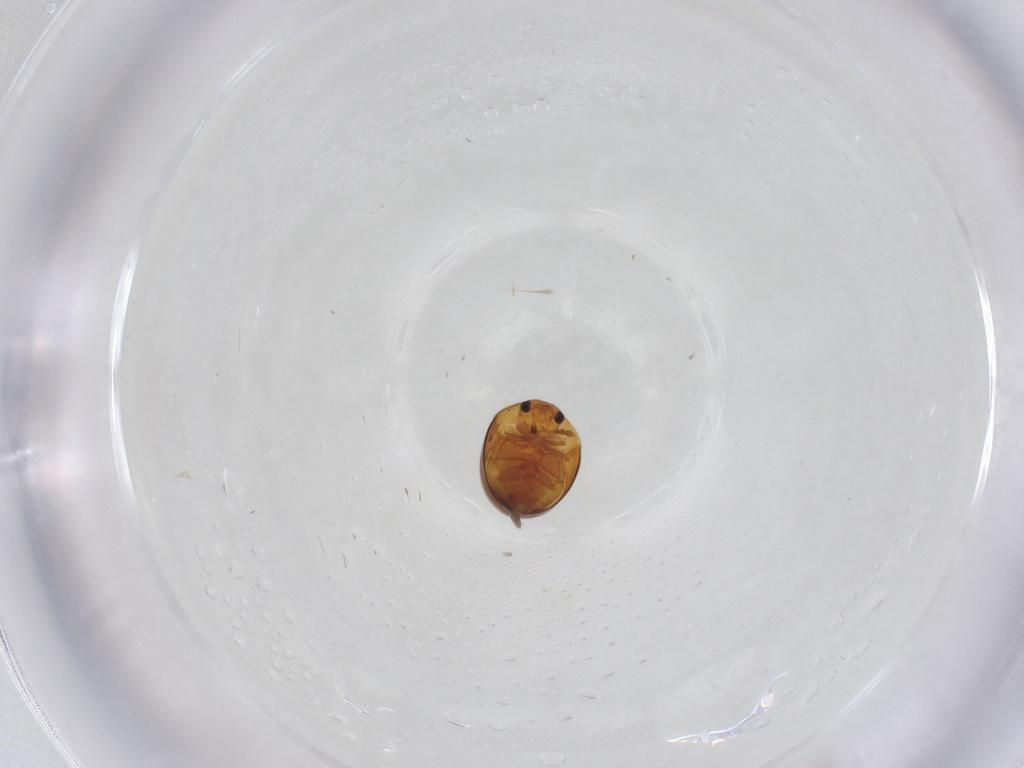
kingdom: Animalia
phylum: Arthropoda
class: Insecta
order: Coleoptera
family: Phalacridae
